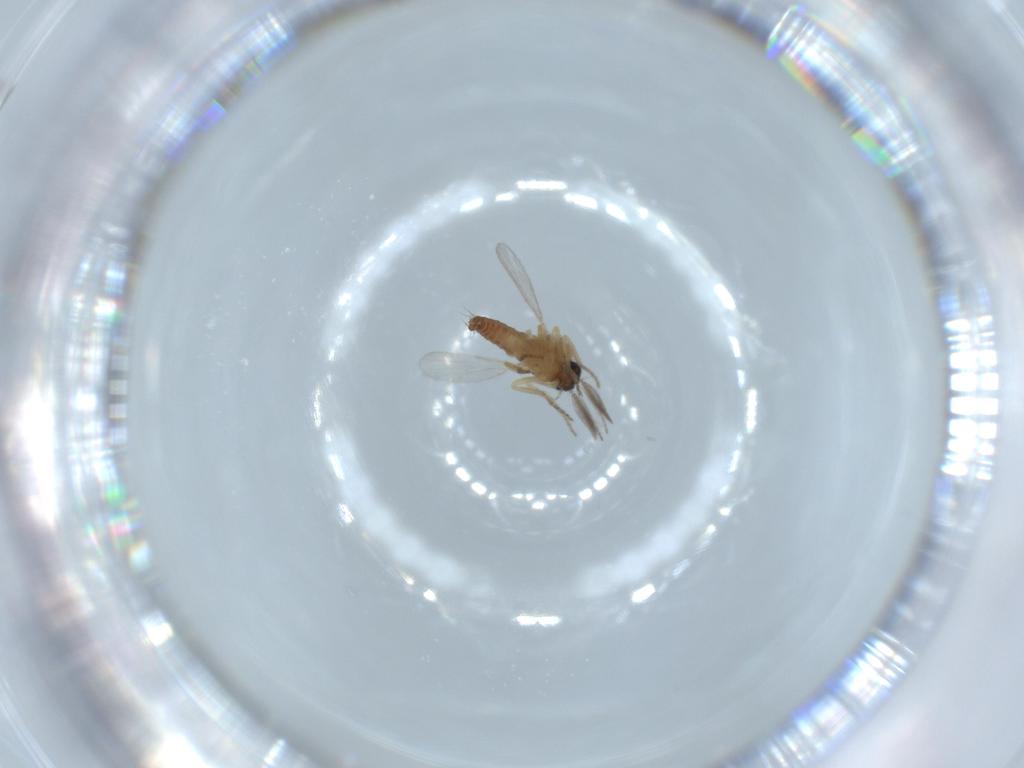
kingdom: Animalia
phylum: Arthropoda
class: Insecta
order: Diptera
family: Ceratopogonidae
